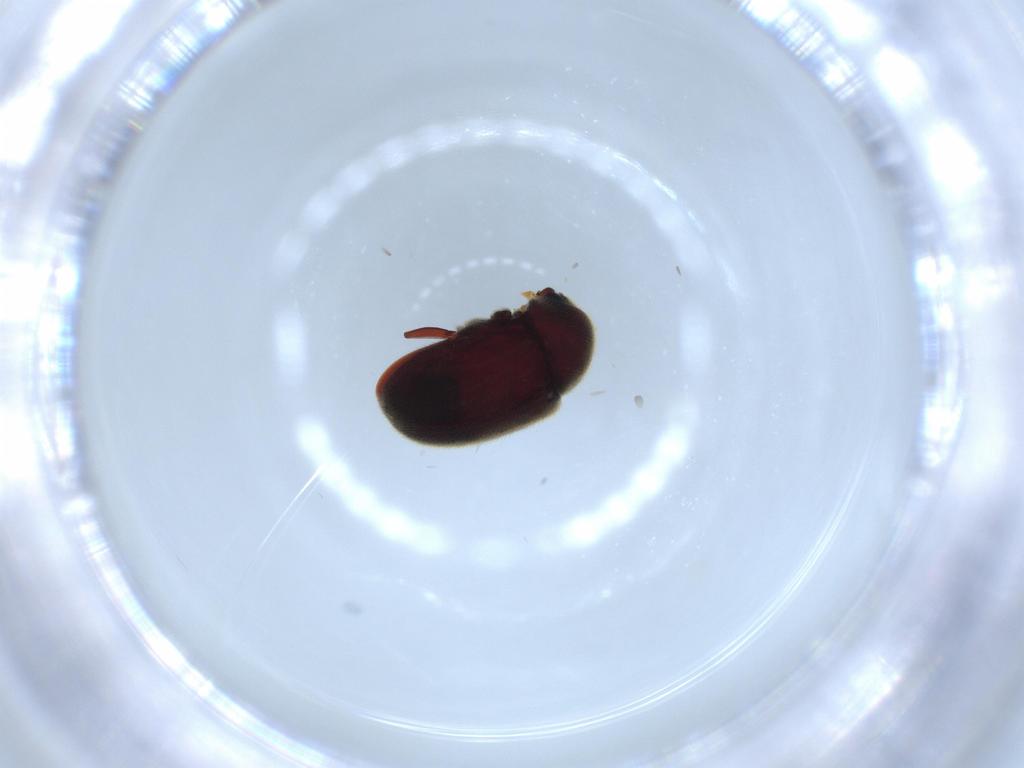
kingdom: Animalia
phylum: Arthropoda
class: Insecta
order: Coleoptera
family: Ptinidae
